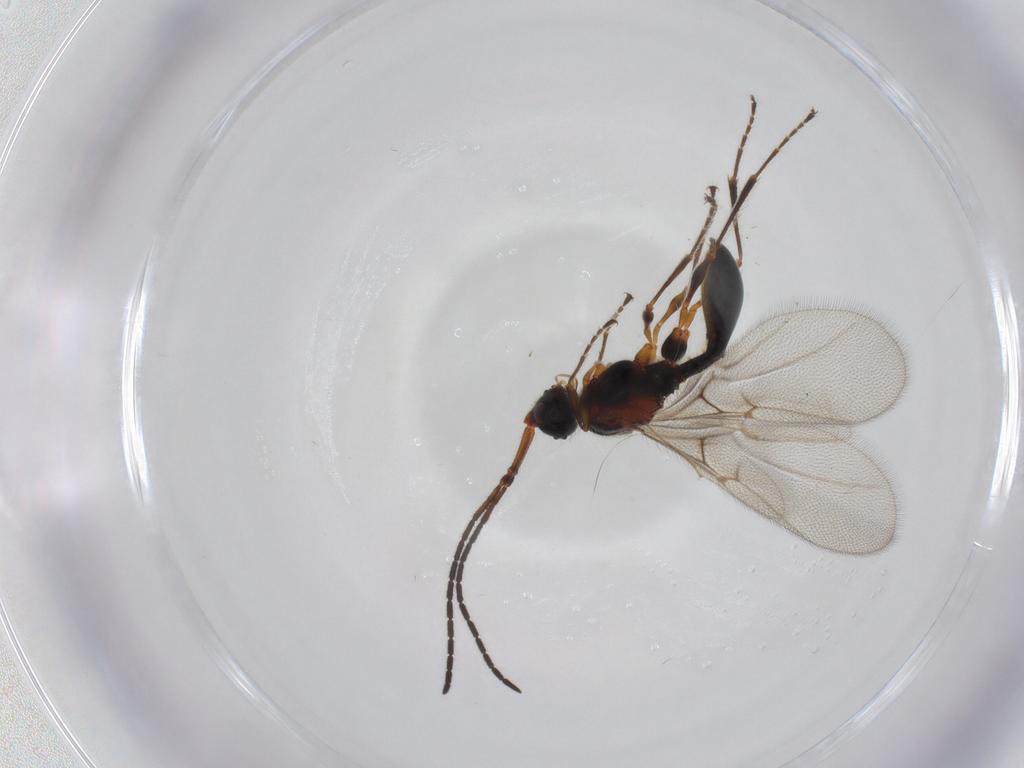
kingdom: Animalia
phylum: Arthropoda
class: Insecta
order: Hymenoptera
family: Diapriidae
